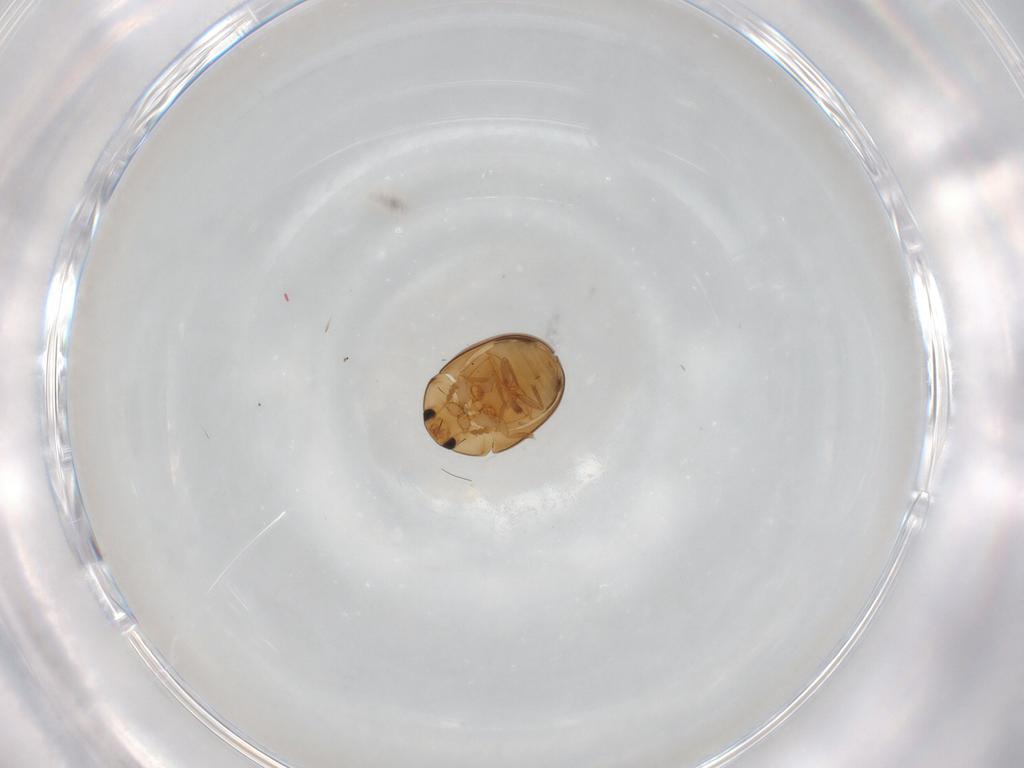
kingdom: Animalia
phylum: Arthropoda
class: Insecta
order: Coleoptera
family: Corylophidae
